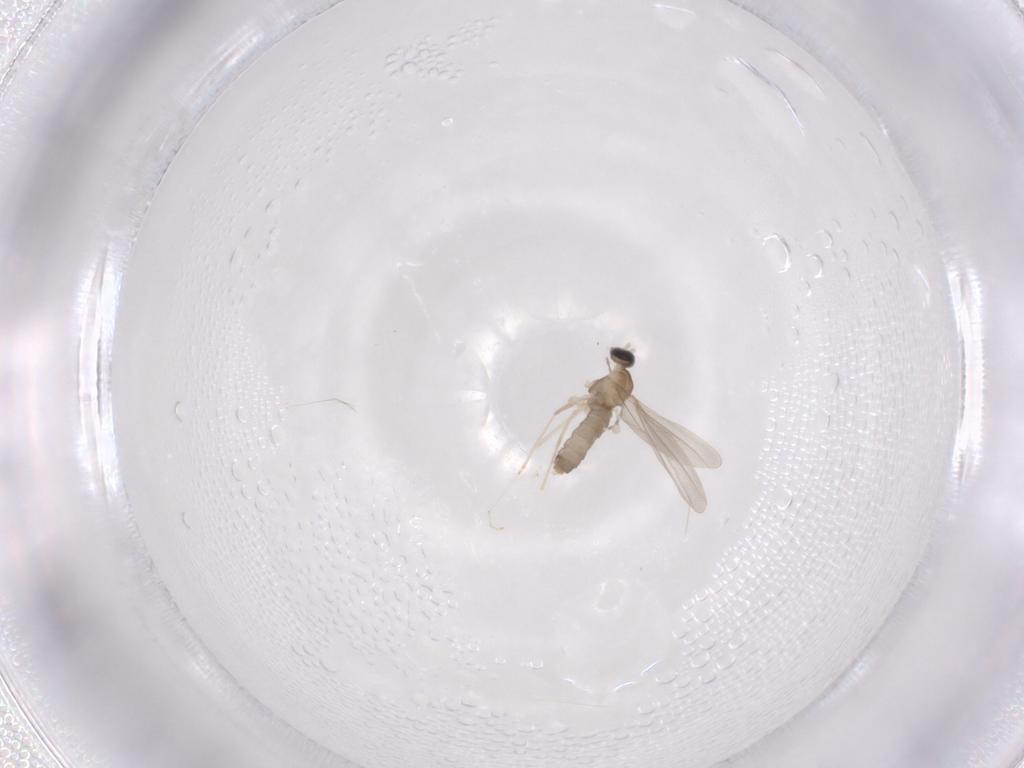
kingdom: Animalia
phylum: Arthropoda
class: Insecta
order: Diptera
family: Cecidomyiidae
